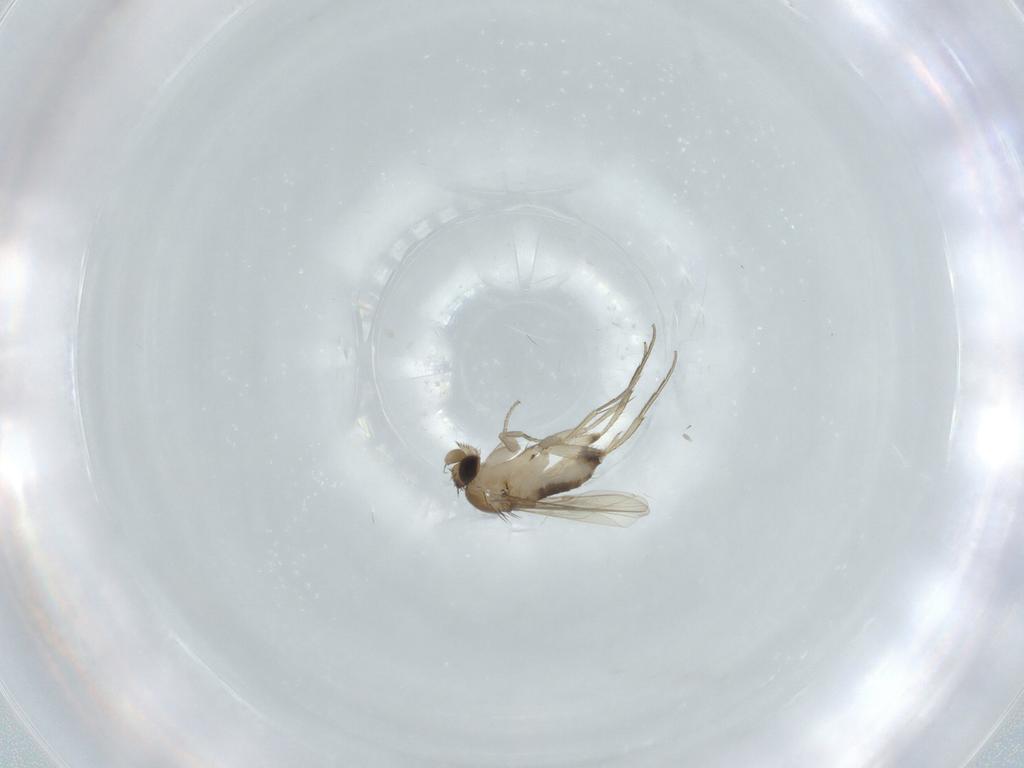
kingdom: Animalia
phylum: Arthropoda
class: Insecta
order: Diptera
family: Phoridae
